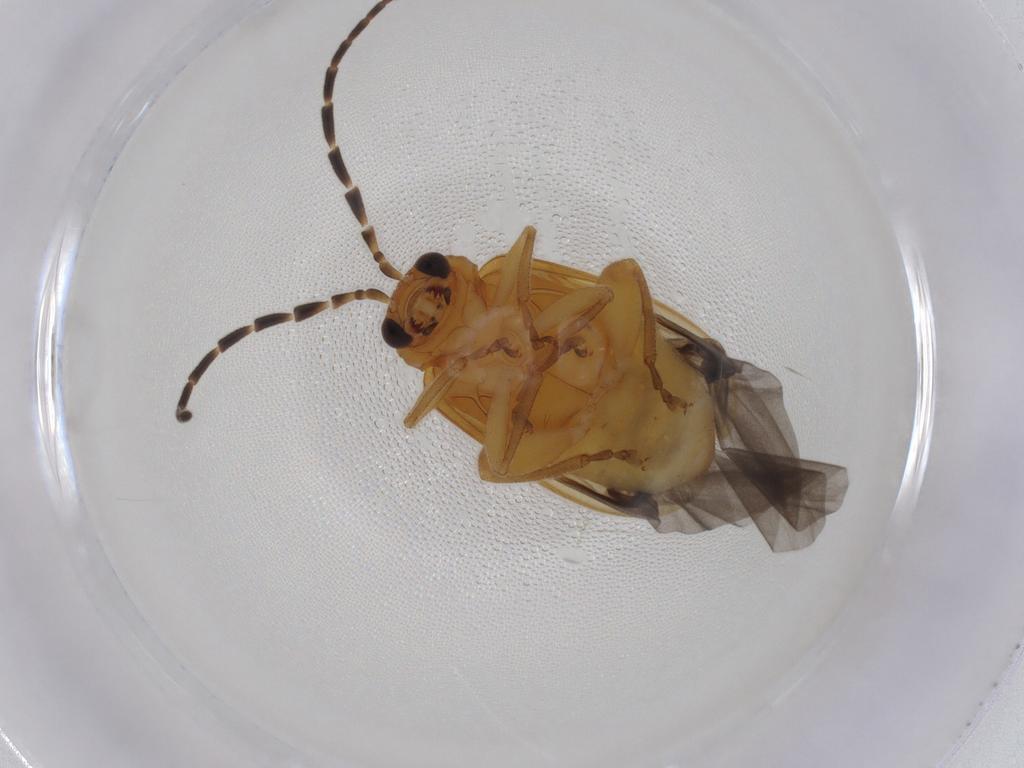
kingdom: Animalia
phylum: Arthropoda
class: Insecta
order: Coleoptera
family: Chrysomelidae
